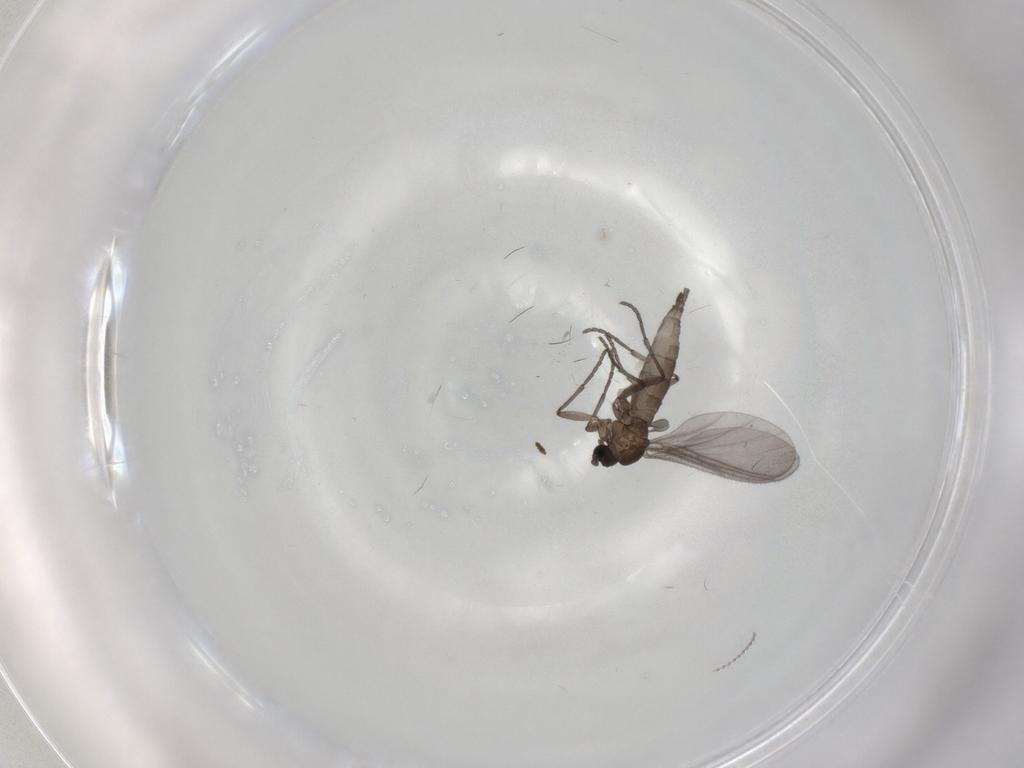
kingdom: Animalia
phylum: Arthropoda
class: Insecta
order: Diptera
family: Sciaridae
